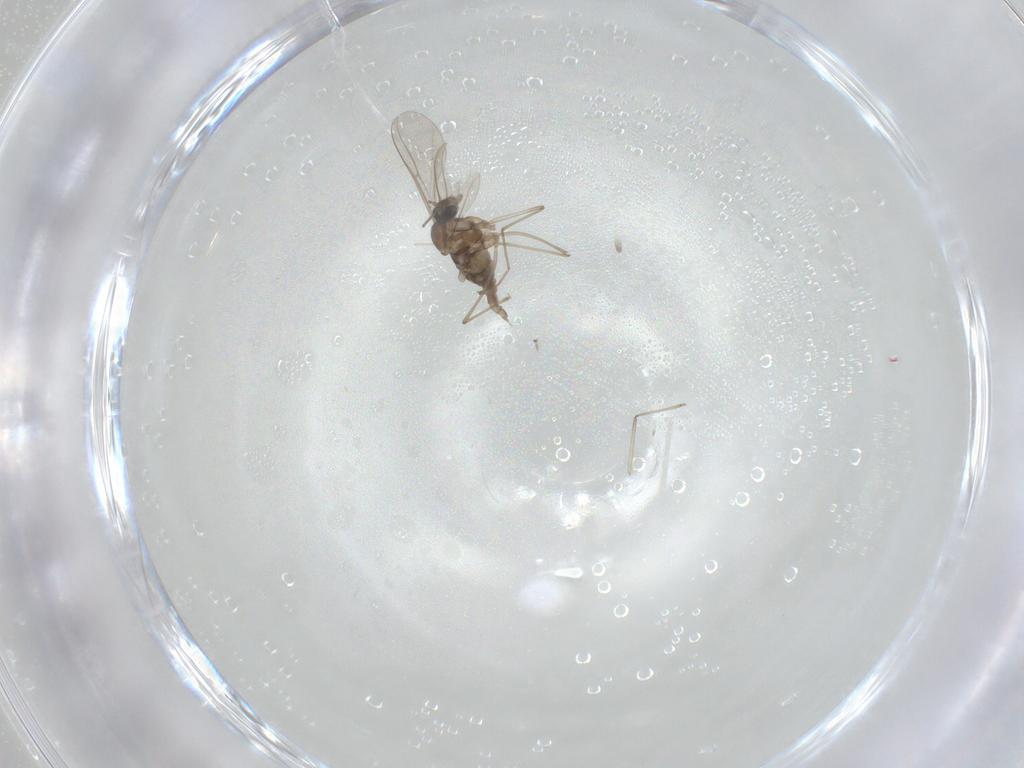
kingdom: Animalia
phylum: Arthropoda
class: Insecta
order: Diptera
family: Cecidomyiidae
